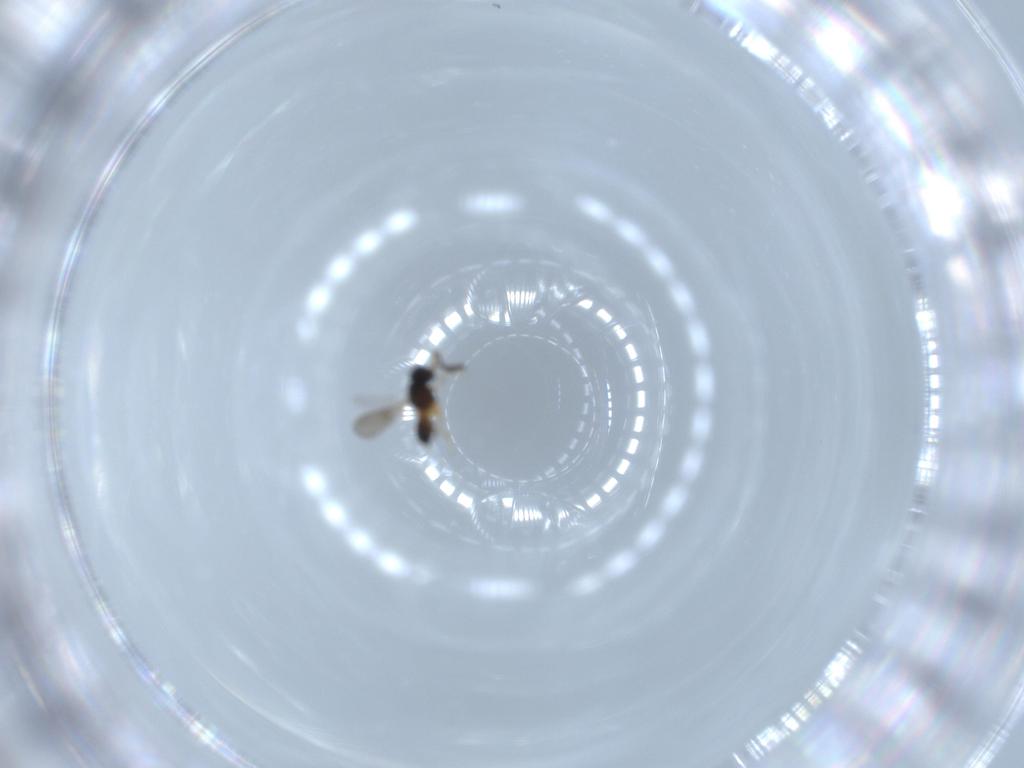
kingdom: Animalia
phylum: Arthropoda
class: Insecta
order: Hymenoptera
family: Scelionidae
